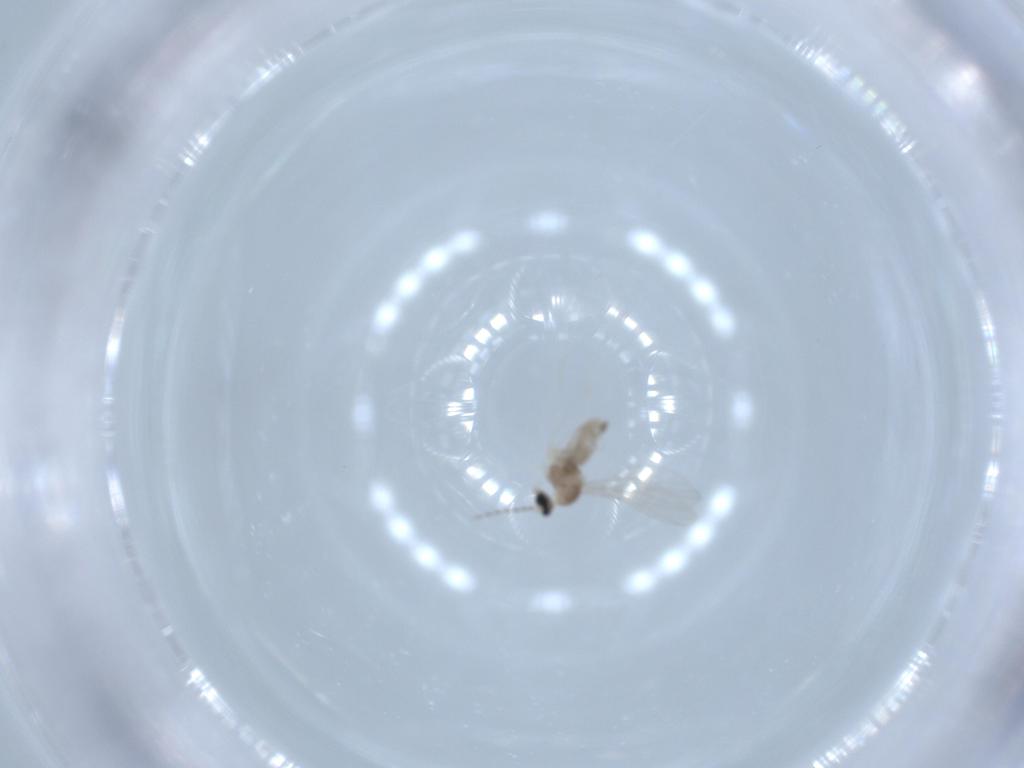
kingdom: Animalia
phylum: Arthropoda
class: Insecta
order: Diptera
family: Cecidomyiidae
